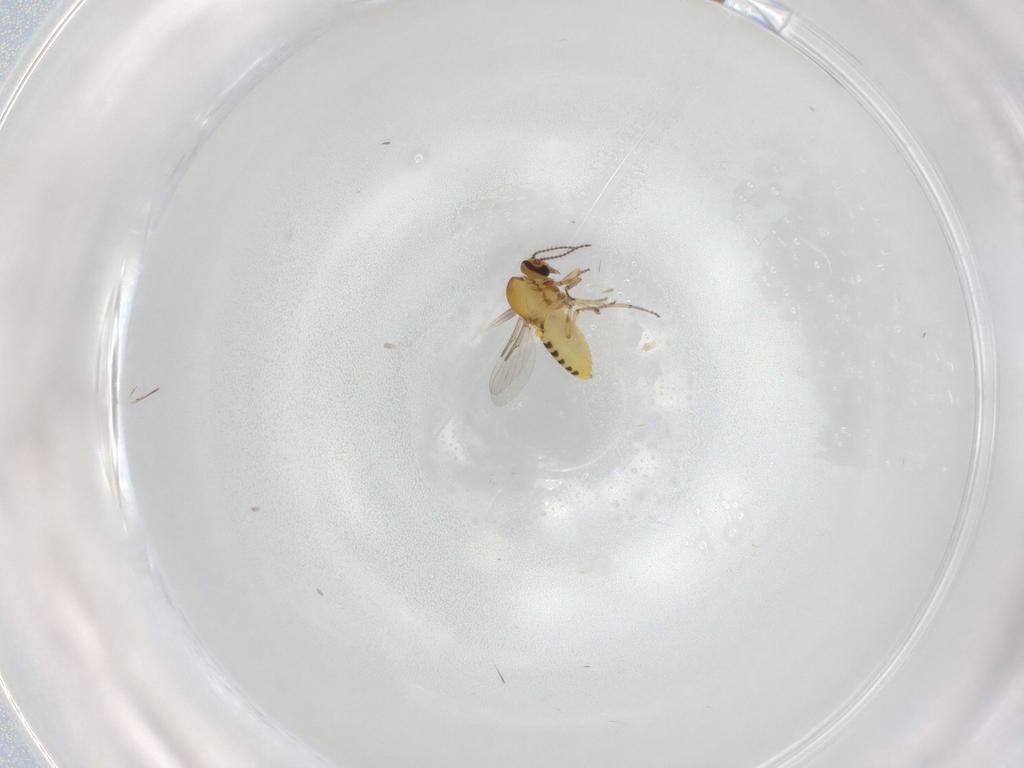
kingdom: Animalia
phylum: Arthropoda
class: Insecta
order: Diptera
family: Ceratopogonidae
